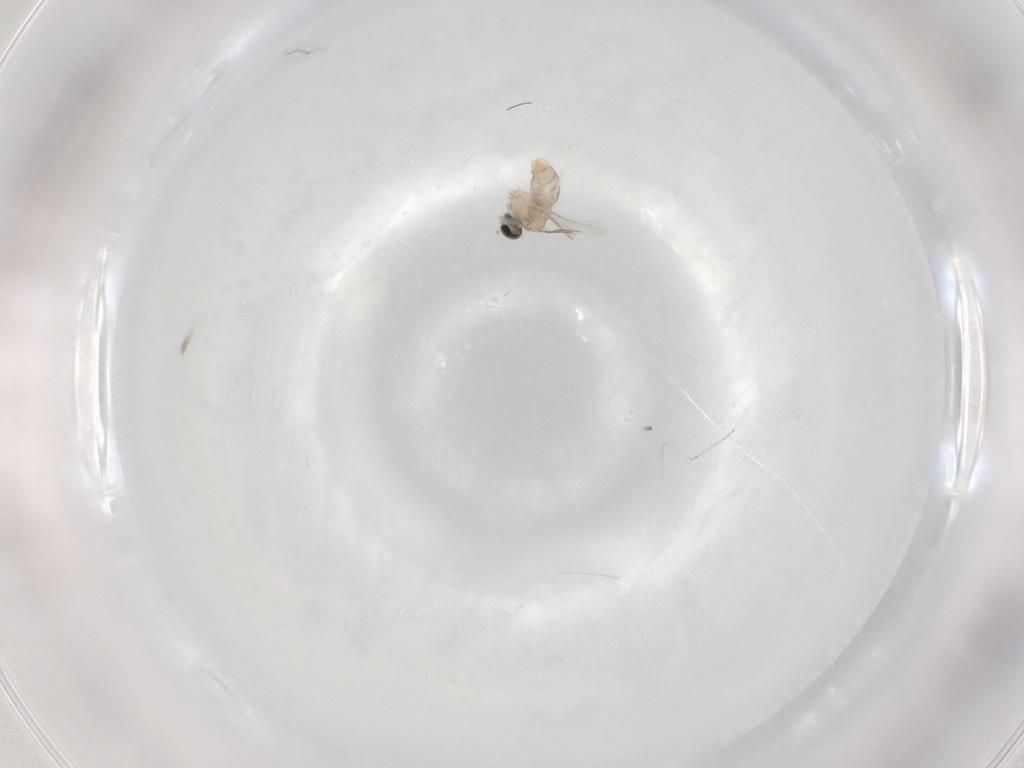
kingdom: Animalia
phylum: Arthropoda
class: Insecta
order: Diptera
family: Cecidomyiidae
